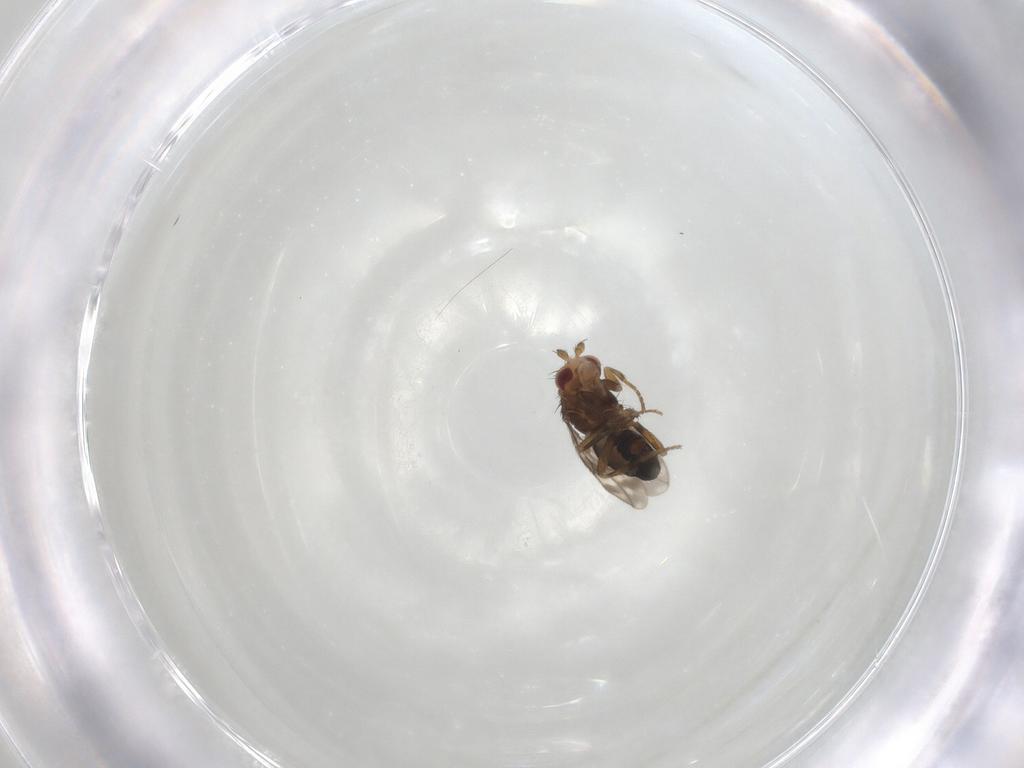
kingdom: Animalia
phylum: Arthropoda
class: Insecta
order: Diptera
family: Sphaeroceridae
